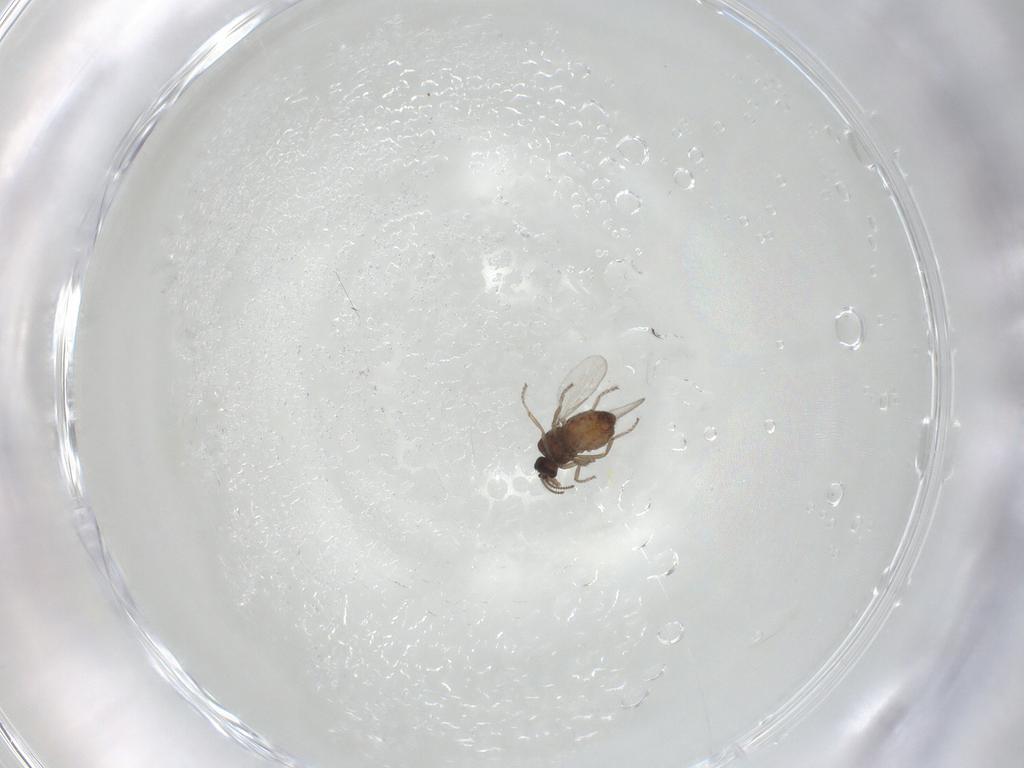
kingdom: Animalia
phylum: Arthropoda
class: Insecta
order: Diptera
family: Ceratopogonidae
